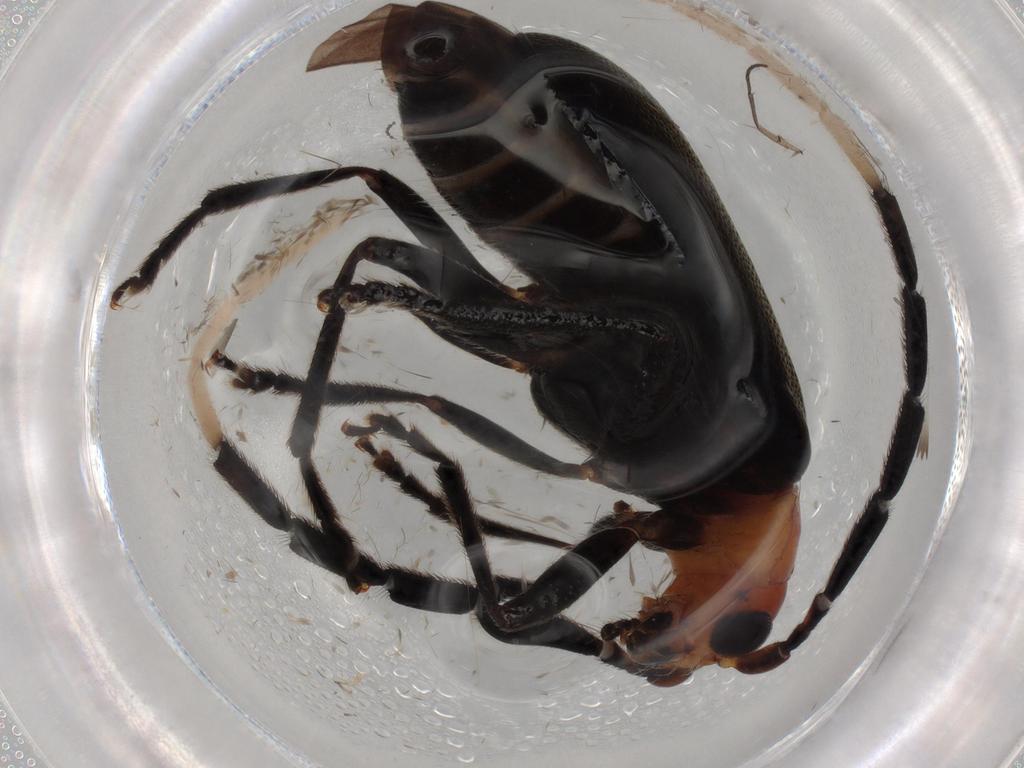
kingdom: Animalia
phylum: Arthropoda
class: Insecta
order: Coleoptera
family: Chrysomelidae
